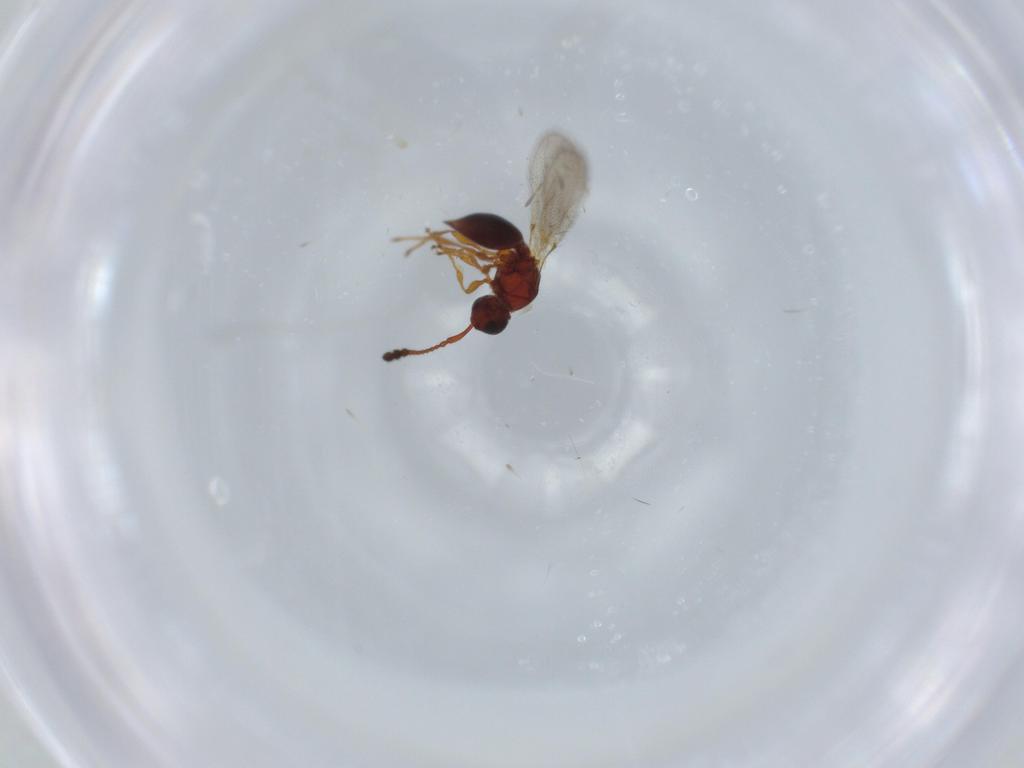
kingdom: Animalia
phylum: Arthropoda
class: Insecta
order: Hymenoptera
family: Diapriidae
